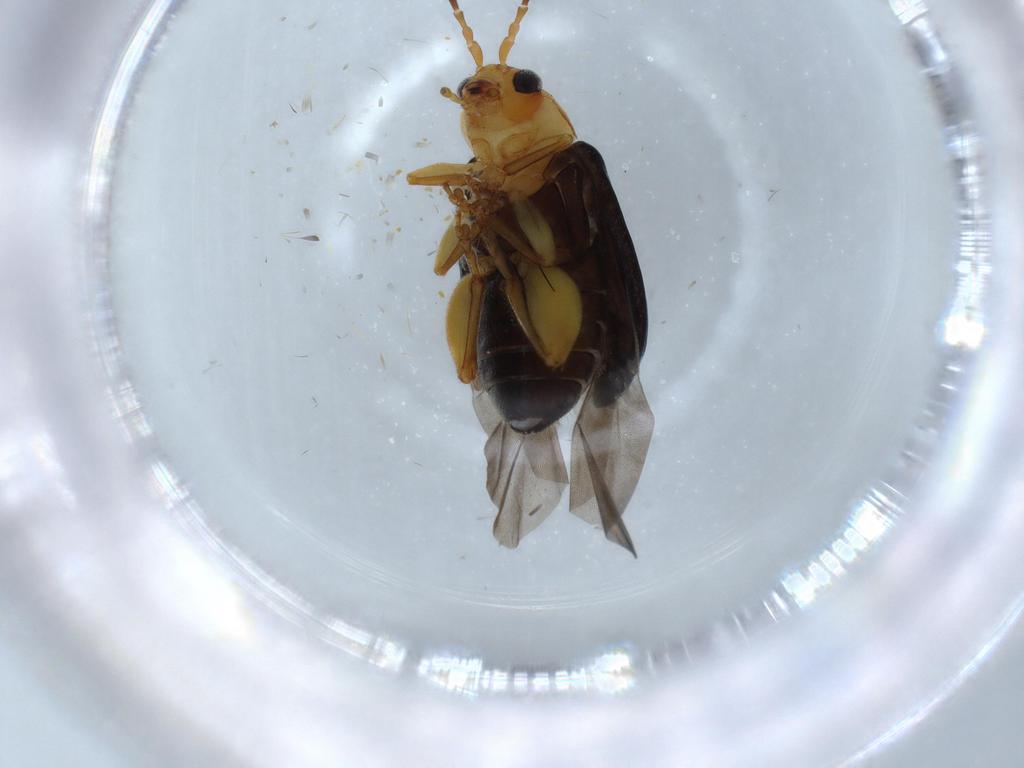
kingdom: Animalia
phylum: Arthropoda
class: Insecta
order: Coleoptera
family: Chrysomelidae
